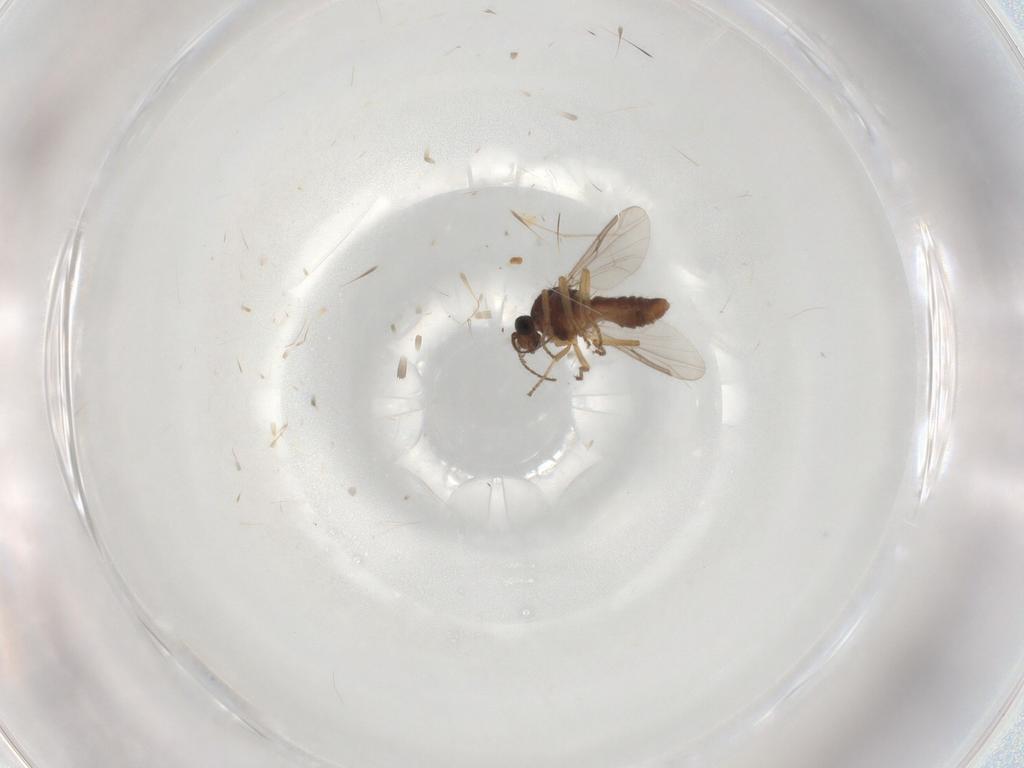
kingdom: Animalia
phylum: Arthropoda
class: Insecta
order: Diptera
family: Ceratopogonidae
